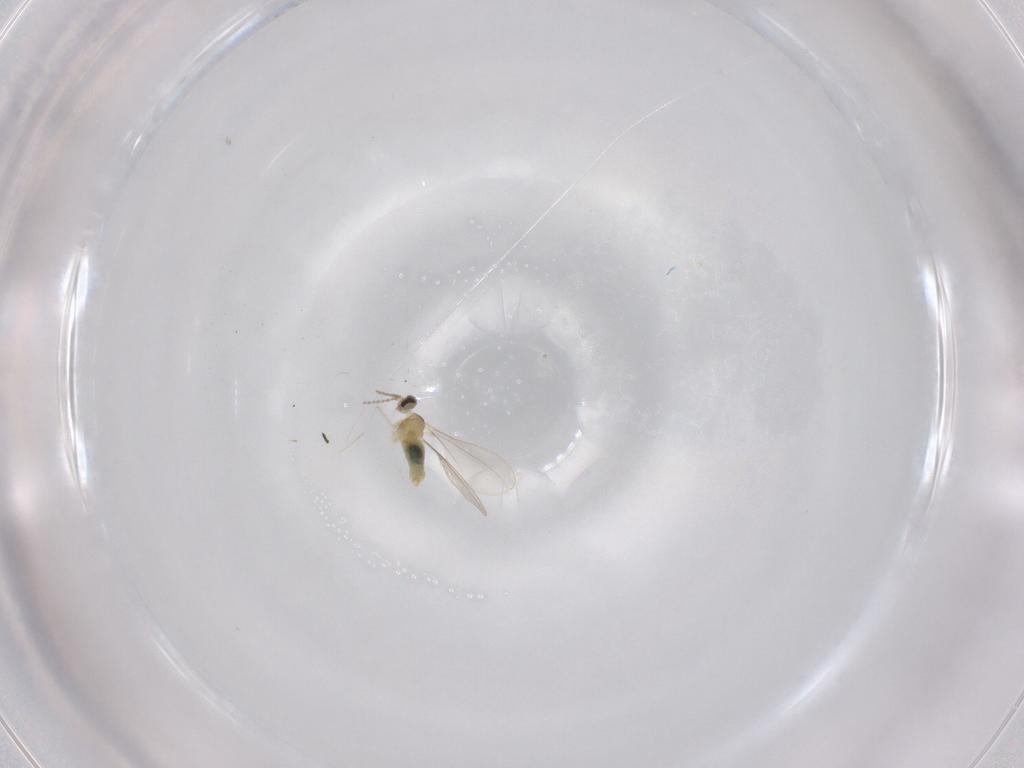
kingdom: Animalia
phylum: Arthropoda
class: Insecta
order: Diptera
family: Cecidomyiidae
